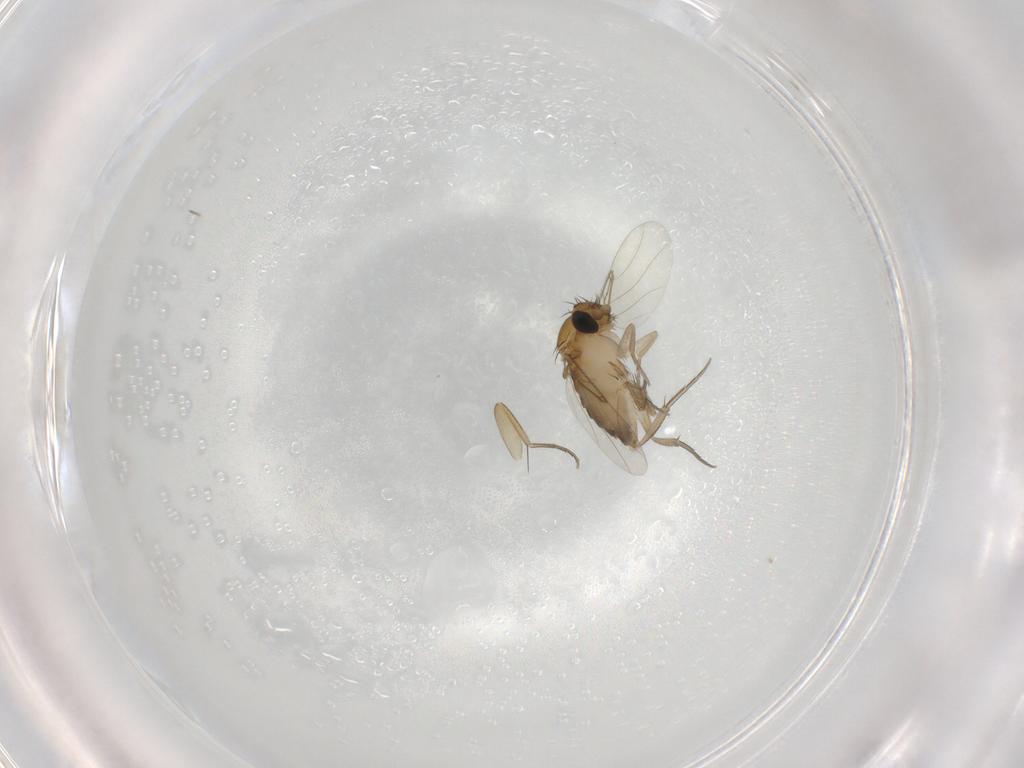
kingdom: Animalia
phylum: Arthropoda
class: Insecta
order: Diptera
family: Phoridae
